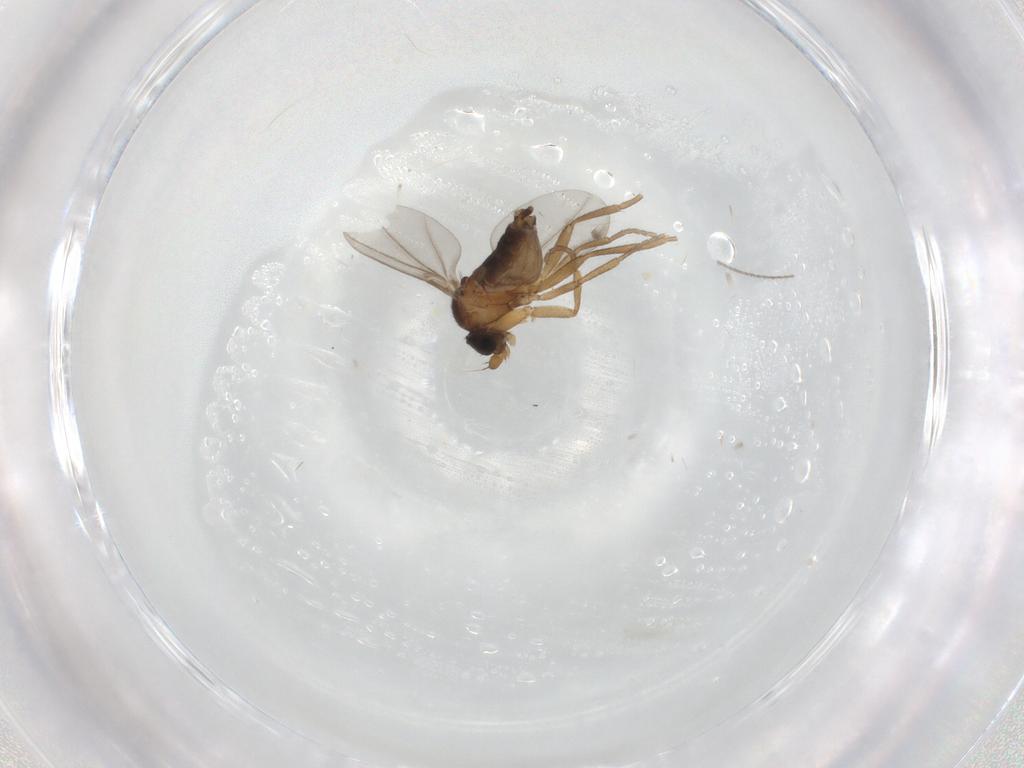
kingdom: Animalia
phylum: Arthropoda
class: Insecta
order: Diptera
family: Phoridae
